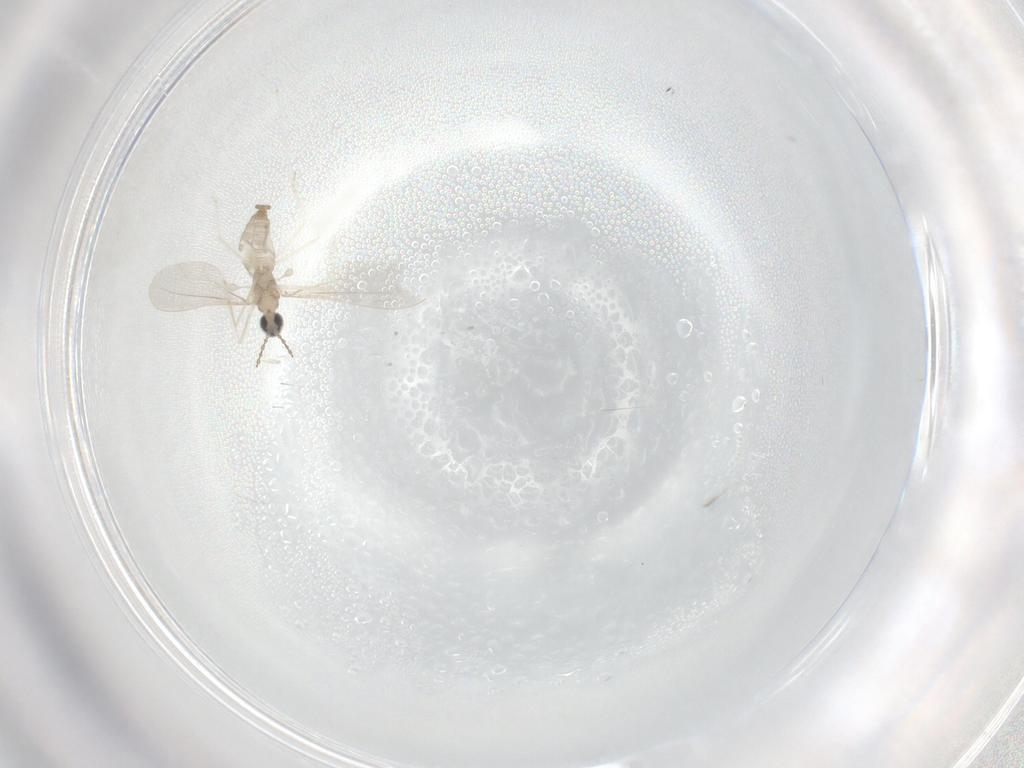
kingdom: Animalia
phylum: Arthropoda
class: Insecta
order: Diptera
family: Cecidomyiidae
